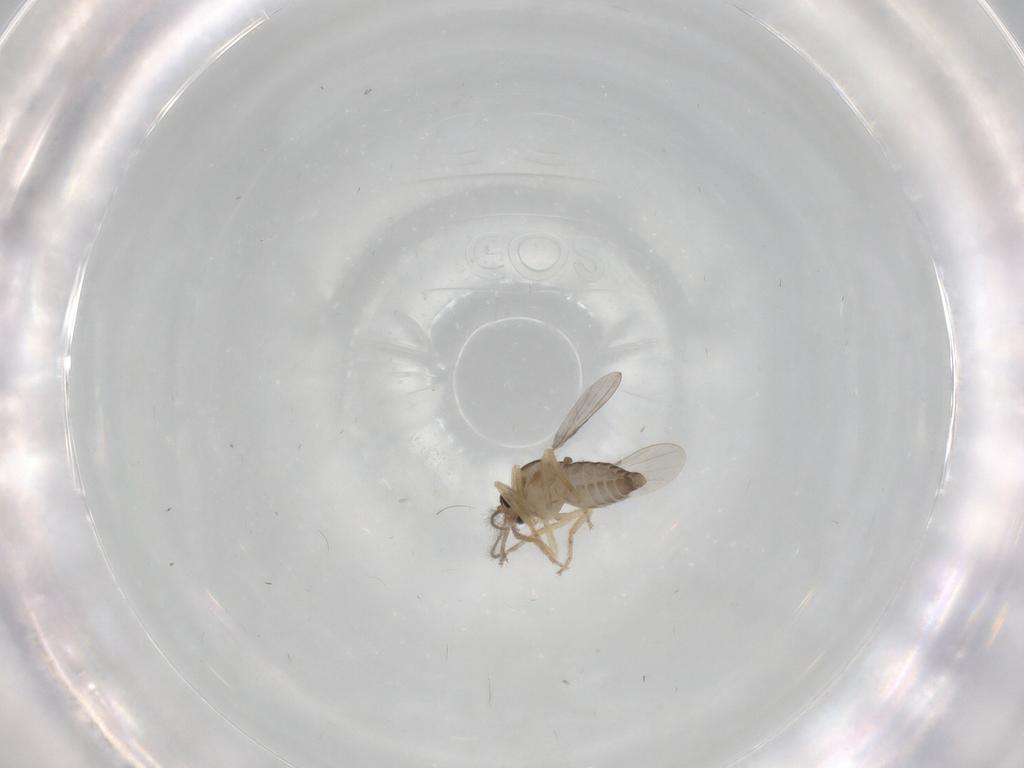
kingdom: Animalia
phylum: Arthropoda
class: Insecta
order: Diptera
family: Ceratopogonidae
